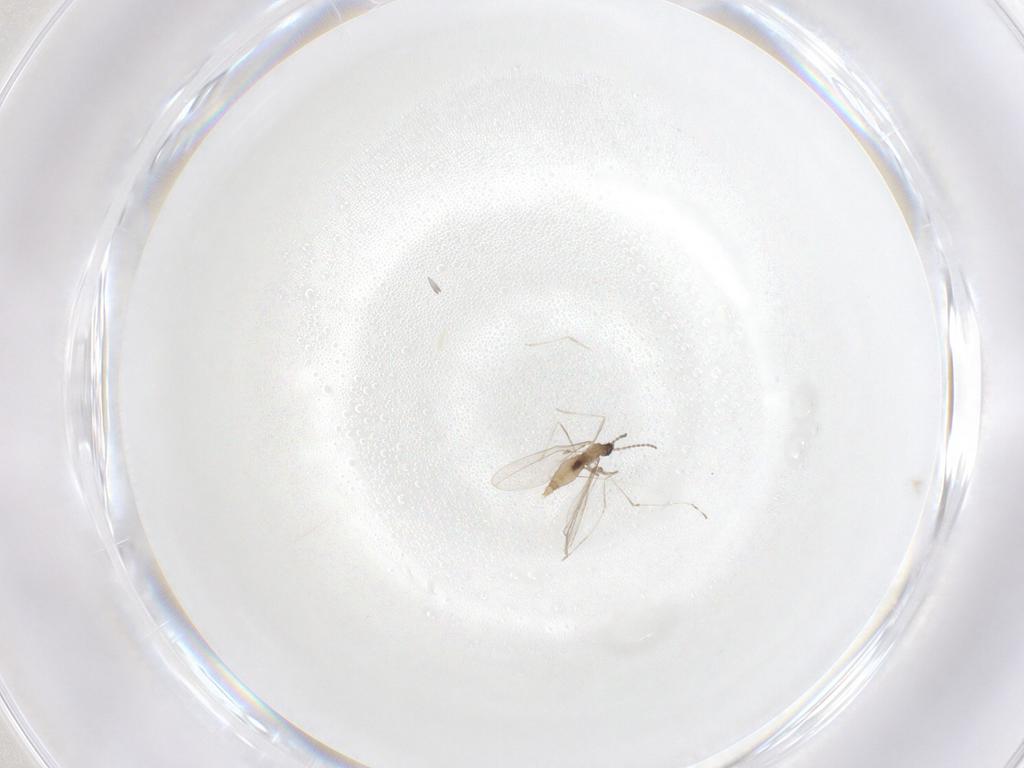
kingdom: Animalia
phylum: Arthropoda
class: Insecta
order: Diptera
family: Cecidomyiidae
